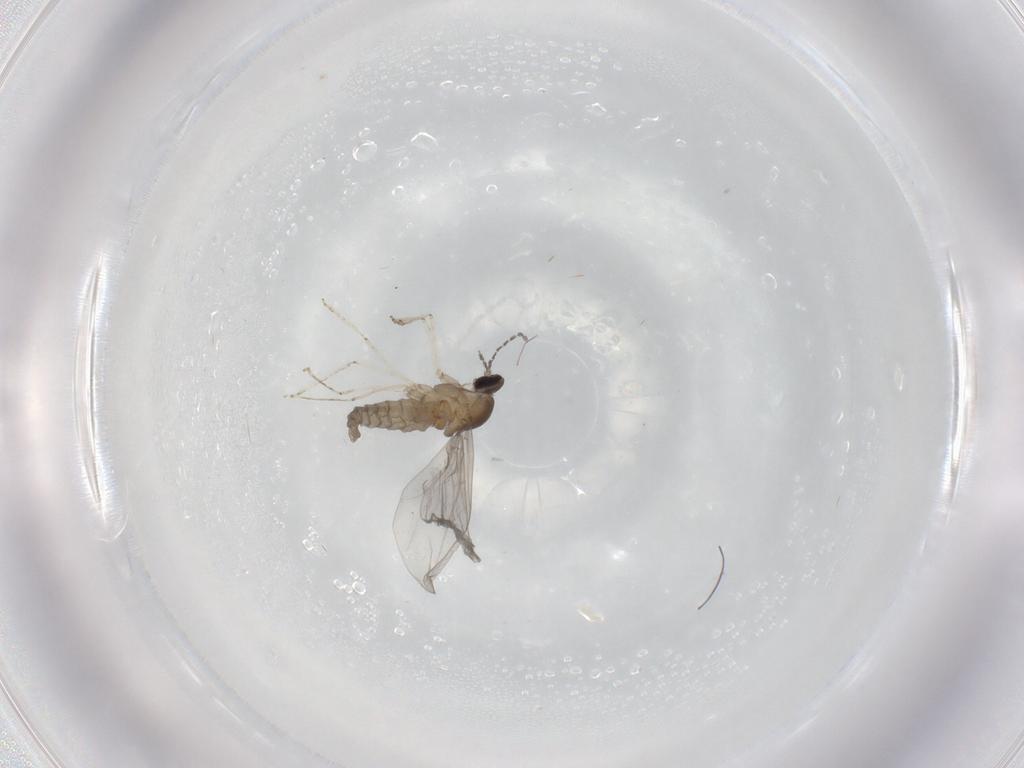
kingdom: Animalia
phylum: Arthropoda
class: Insecta
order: Diptera
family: Cecidomyiidae
